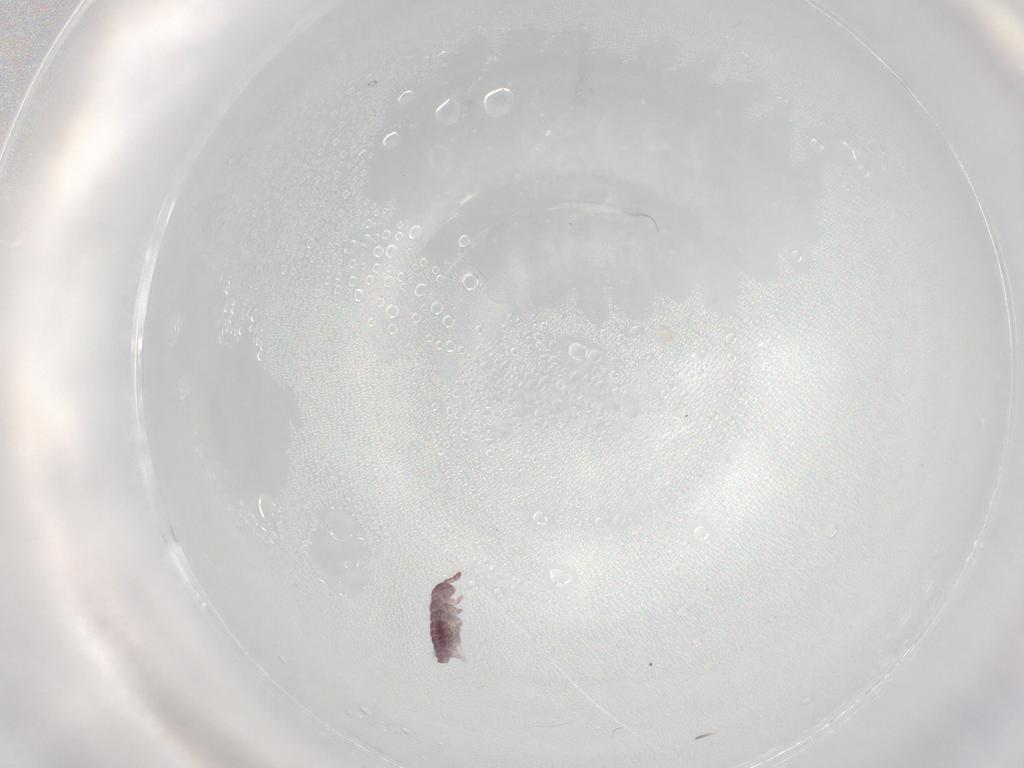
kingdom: Animalia
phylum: Arthropoda
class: Collembola
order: Poduromorpha
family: Hypogastruridae
